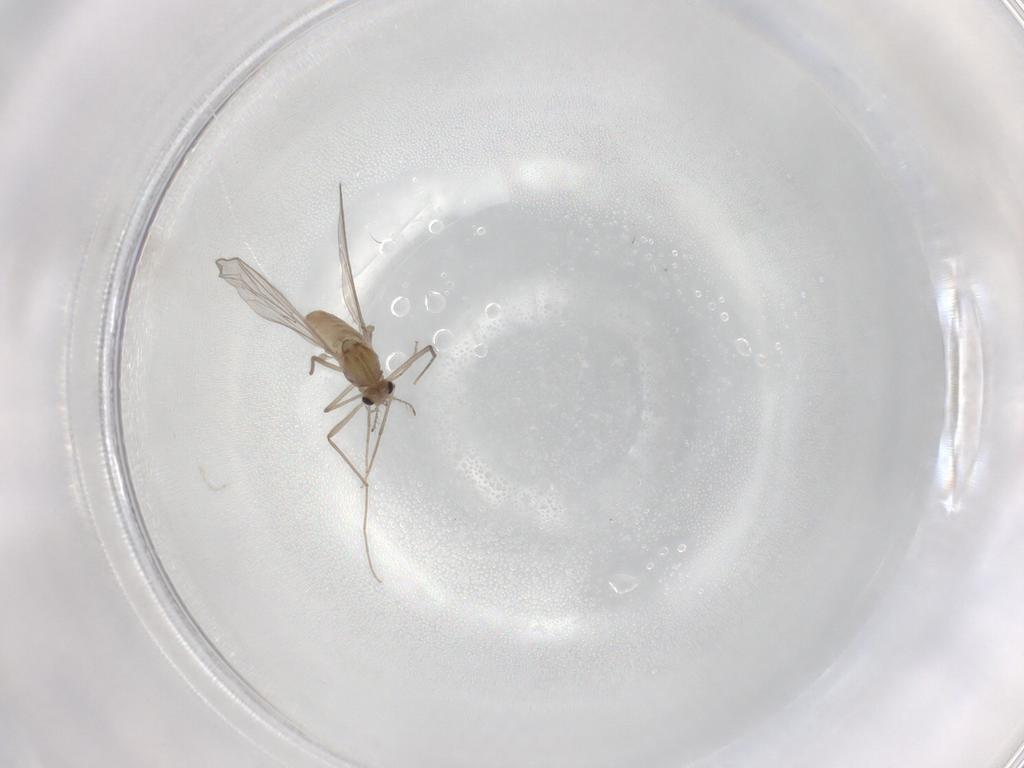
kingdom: Animalia
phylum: Arthropoda
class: Insecta
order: Diptera
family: Chironomidae
